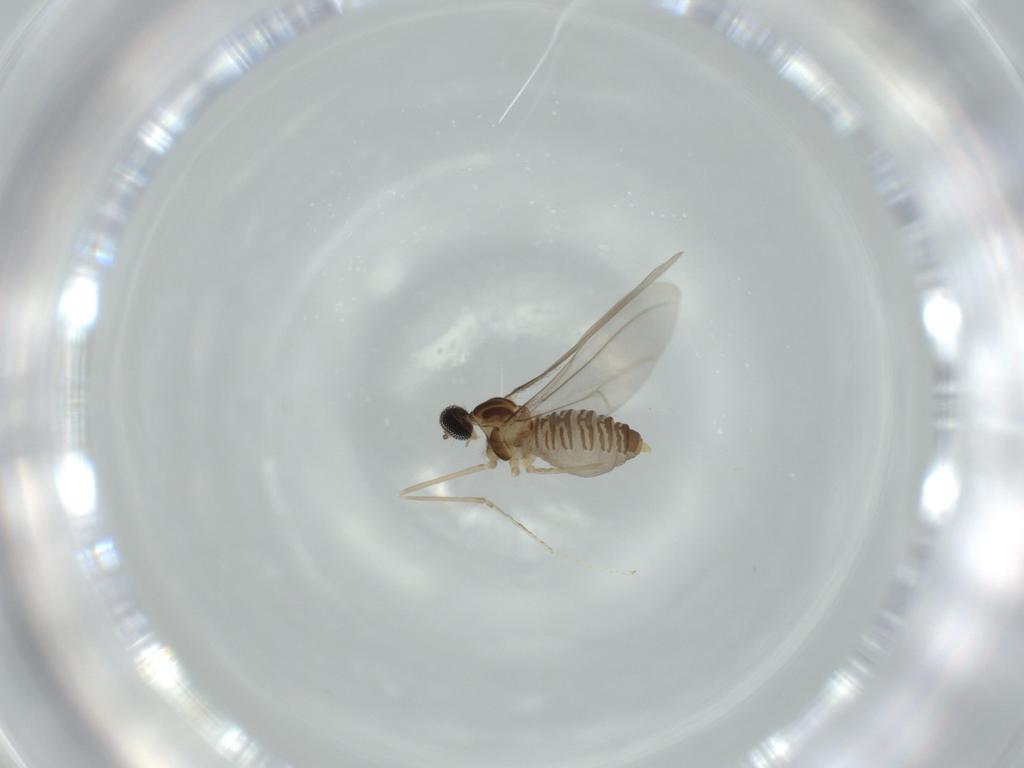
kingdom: Animalia
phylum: Arthropoda
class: Insecta
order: Diptera
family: Cecidomyiidae
